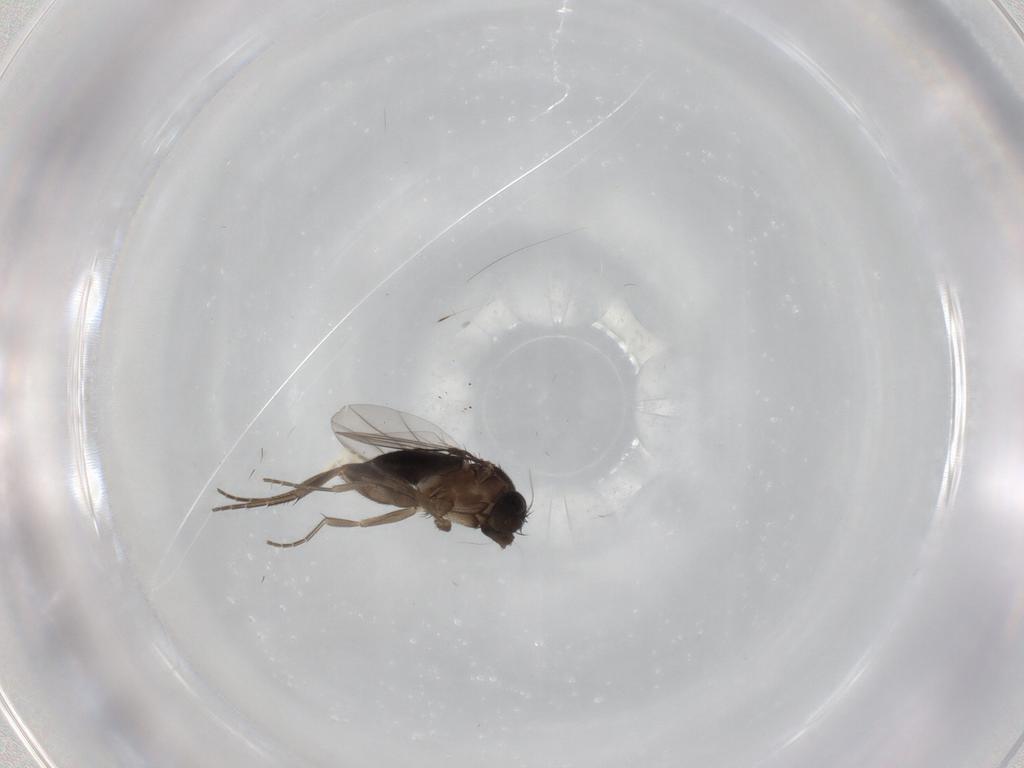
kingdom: Animalia
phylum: Arthropoda
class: Insecta
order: Diptera
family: Phoridae
